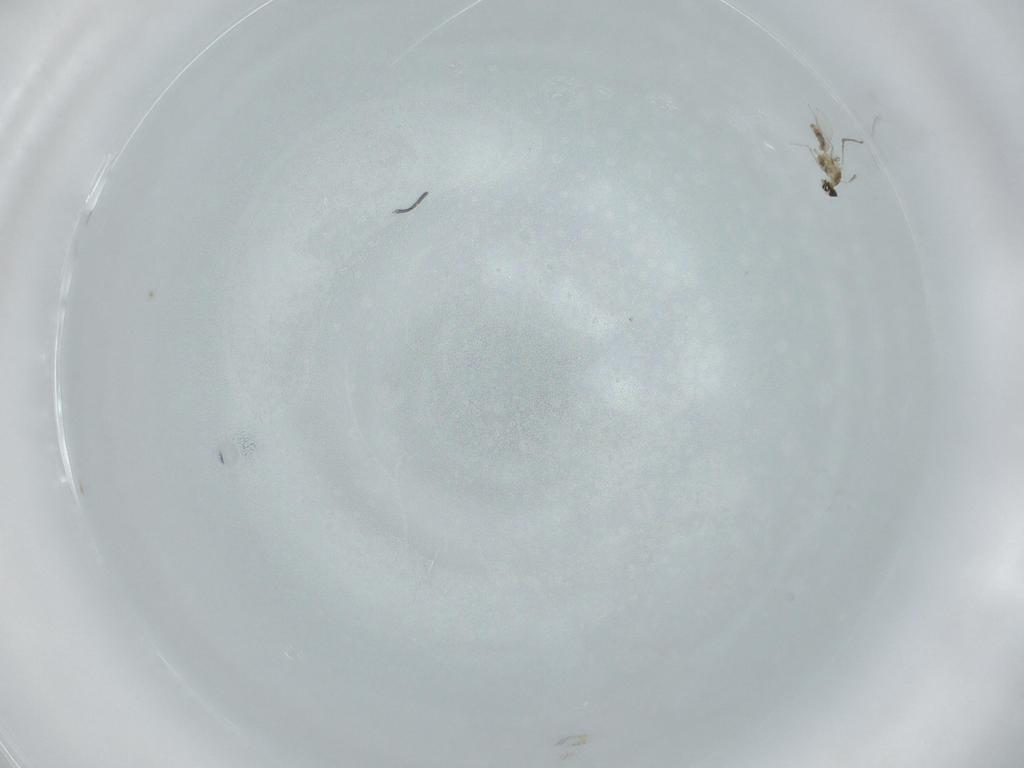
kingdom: Animalia
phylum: Arthropoda
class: Insecta
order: Diptera
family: Cecidomyiidae
